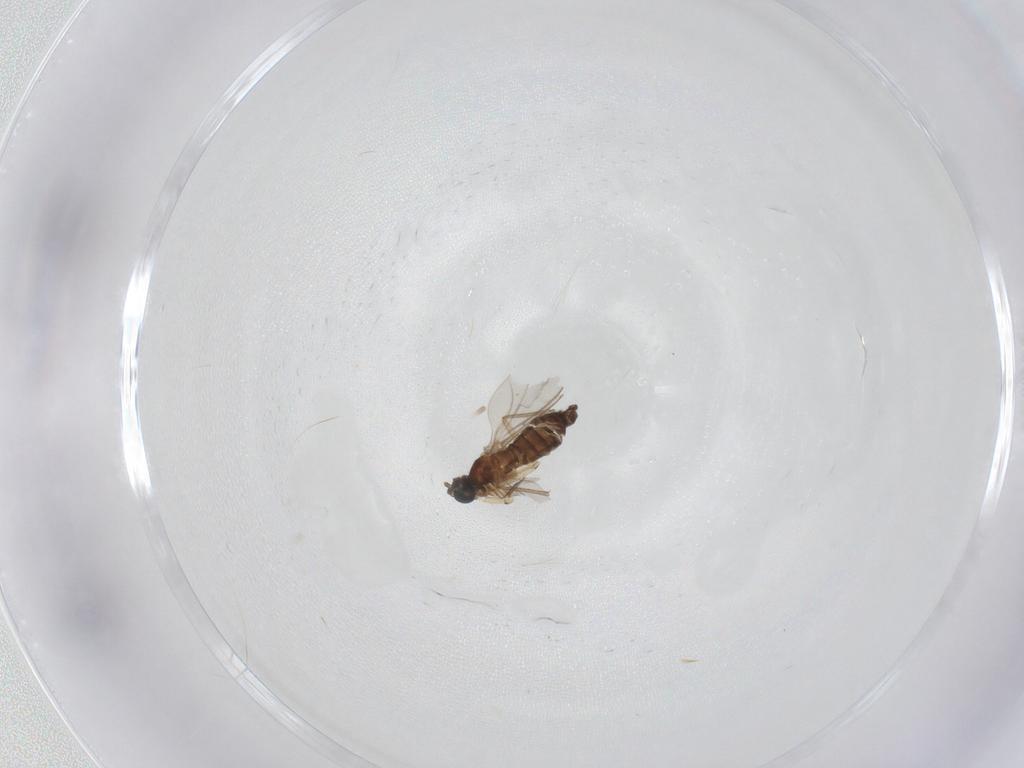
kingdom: Animalia
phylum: Arthropoda
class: Insecta
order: Diptera
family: Sciaridae
